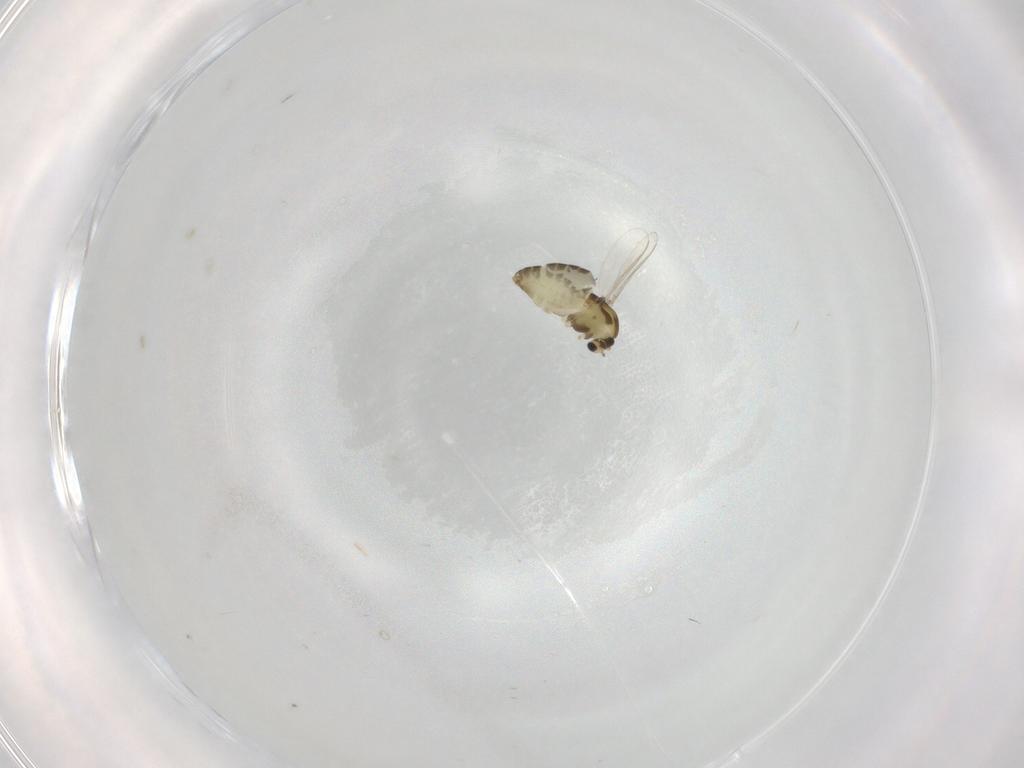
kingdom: Animalia
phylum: Arthropoda
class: Insecta
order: Diptera
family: Chironomidae
